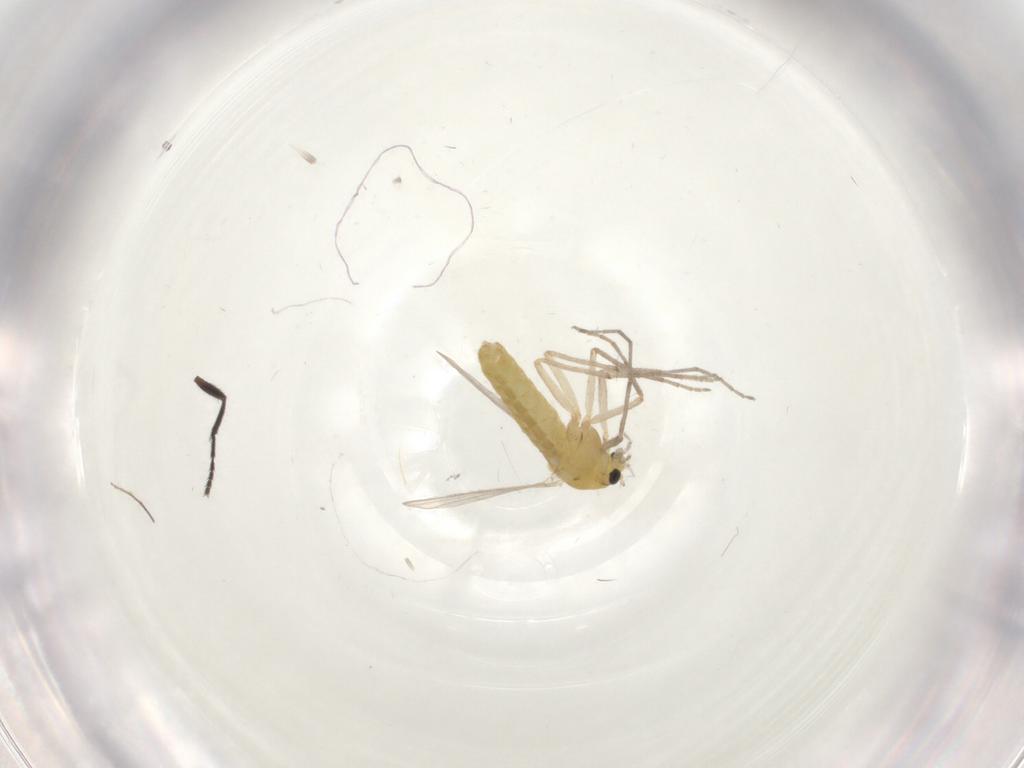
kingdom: Animalia
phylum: Arthropoda
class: Insecta
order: Diptera
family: Chironomidae
